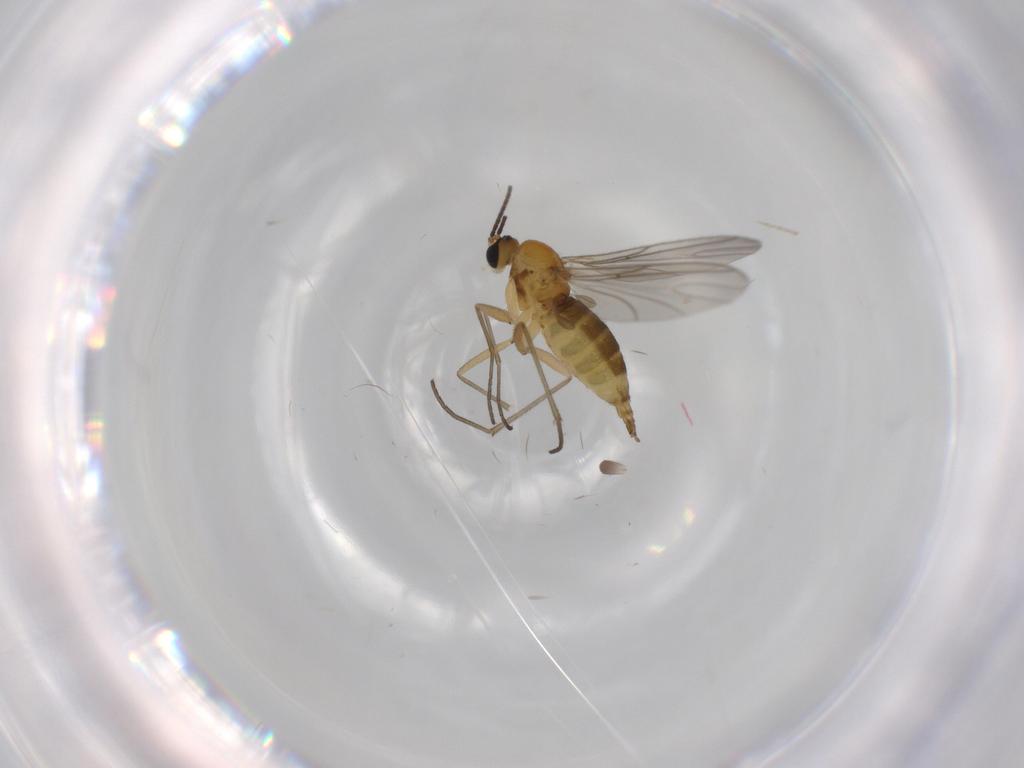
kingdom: Animalia
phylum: Arthropoda
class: Insecta
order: Diptera
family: Sciaridae
